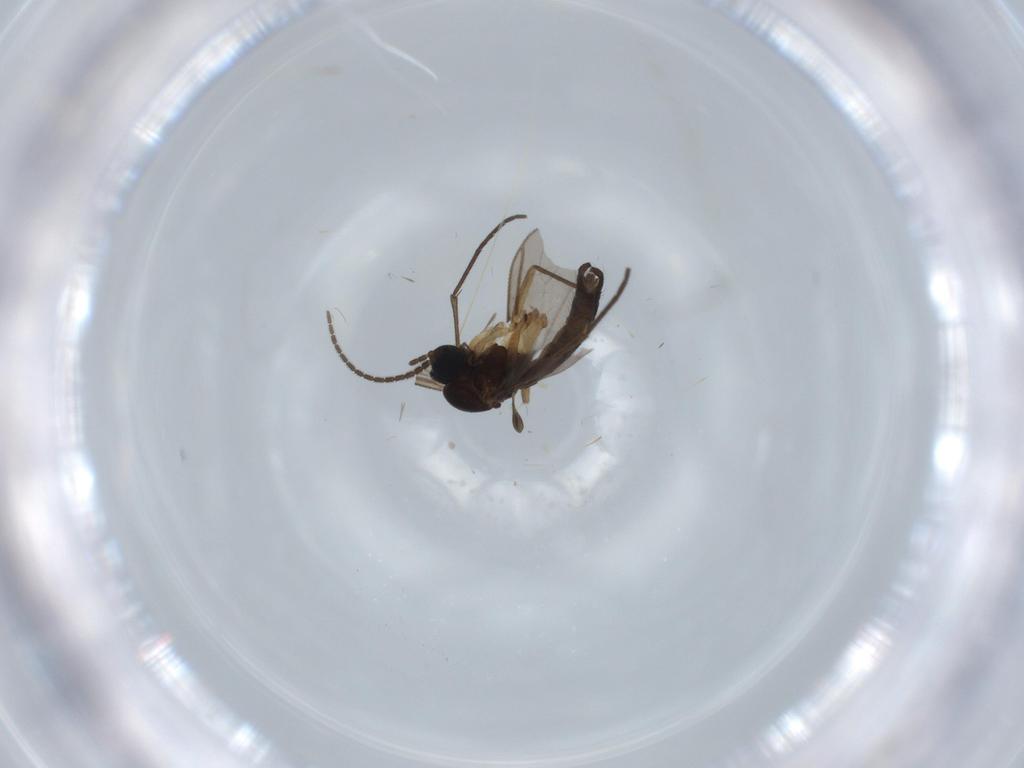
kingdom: Animalia
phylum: Arthropoda
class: Insecta
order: Diptera
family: Sciaridae
